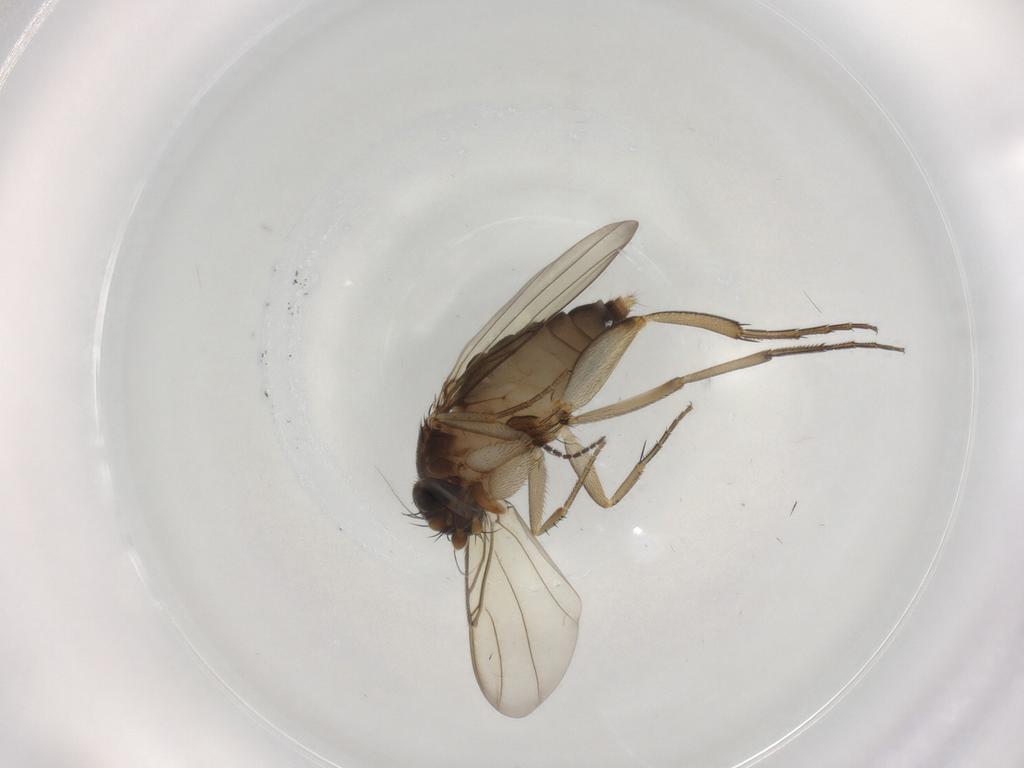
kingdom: Animalia
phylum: Arthropoda
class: Insecta
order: Diptera
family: Phoridae
